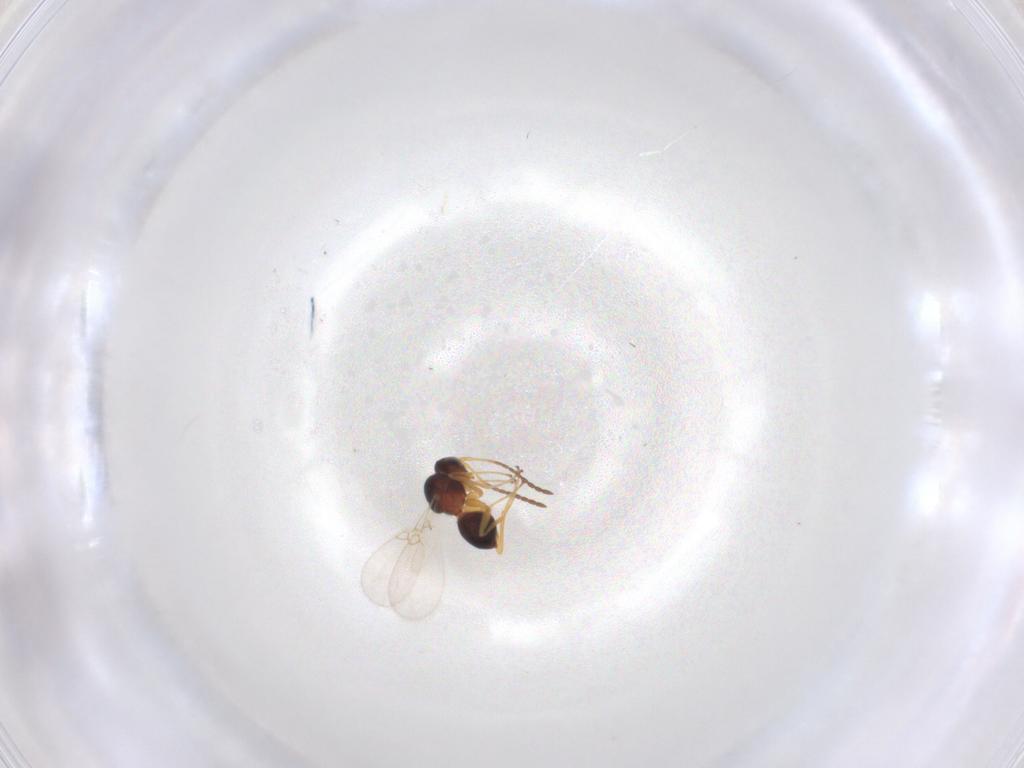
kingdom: Animalia
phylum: Arthropoda
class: Insecta
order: Hymenoptera
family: Figitidae
